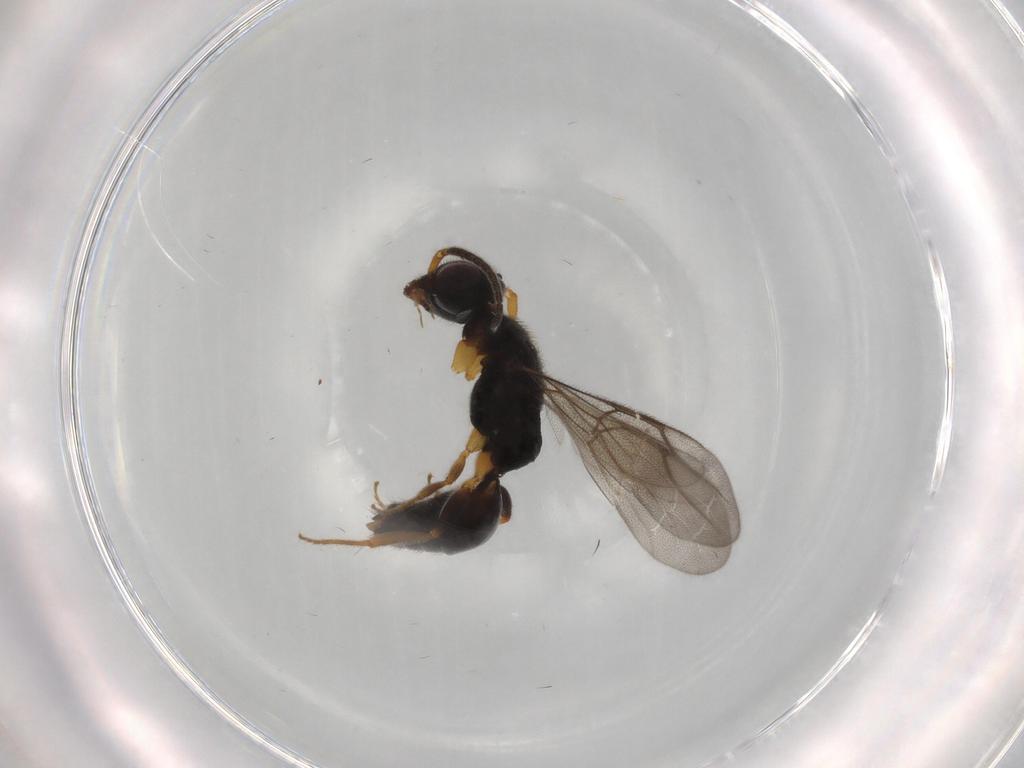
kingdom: Animalia
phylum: Arthropoda
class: Insecta
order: Hymenoptera
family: Bethylidae
